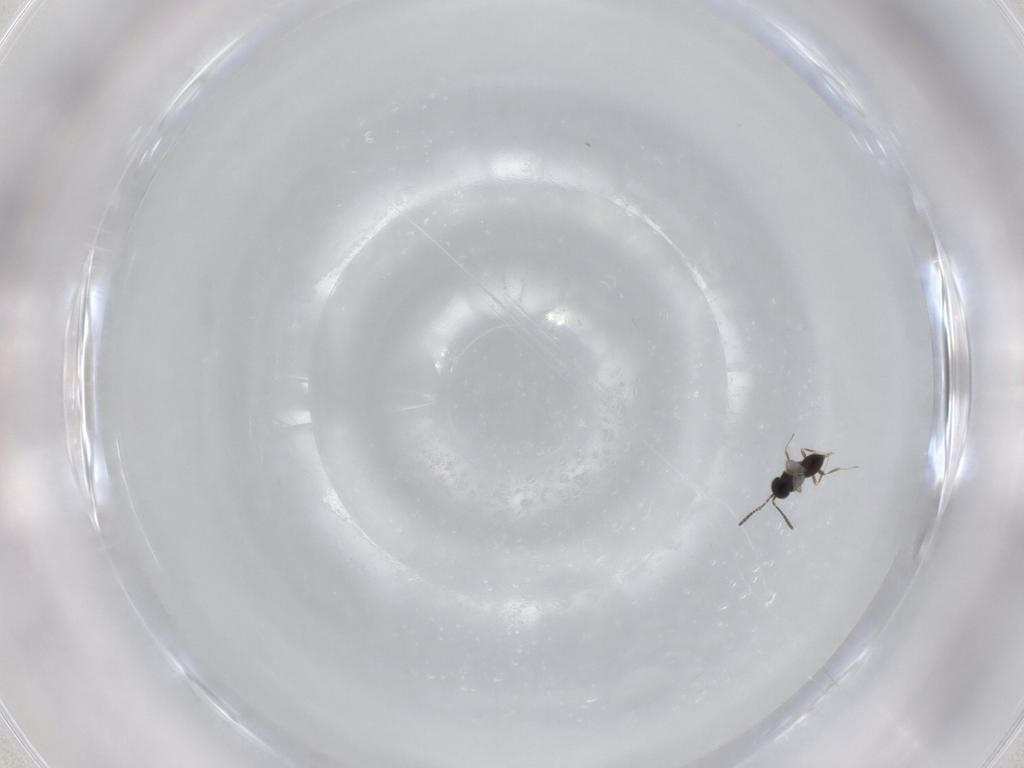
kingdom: Animalia
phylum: Arthropoda
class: Insecta
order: Hymenoptera
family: Scelionidae
